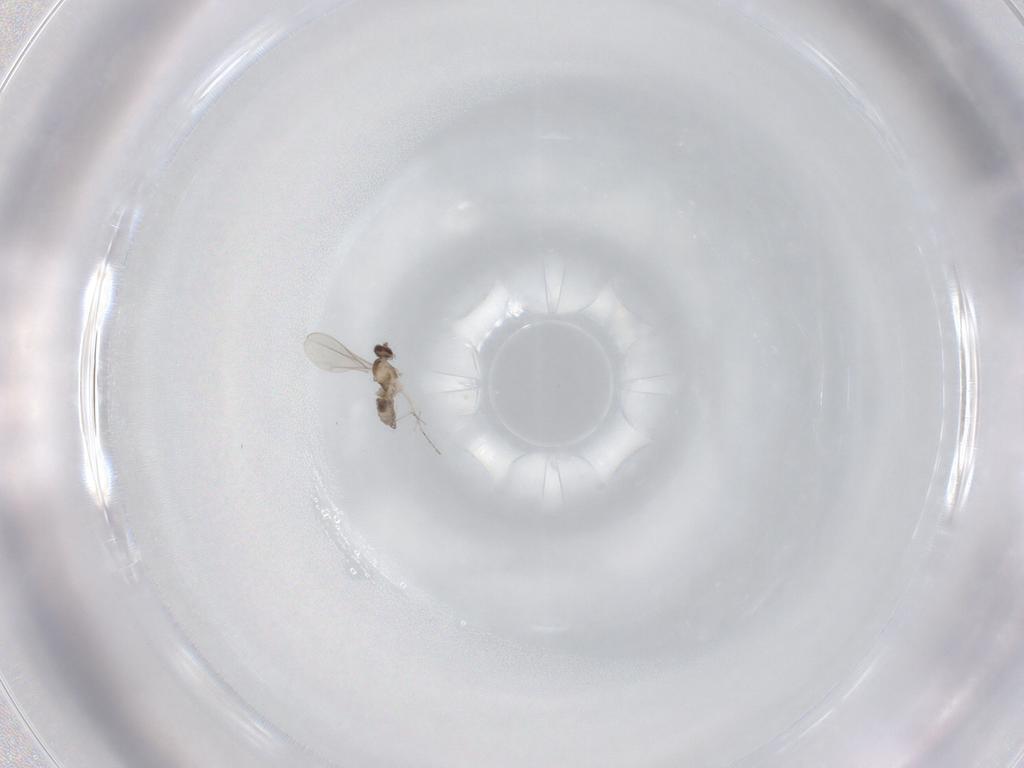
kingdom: Animalia
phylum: Arthropoda
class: Insecta
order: Diptera
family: Cecidomyiidae
